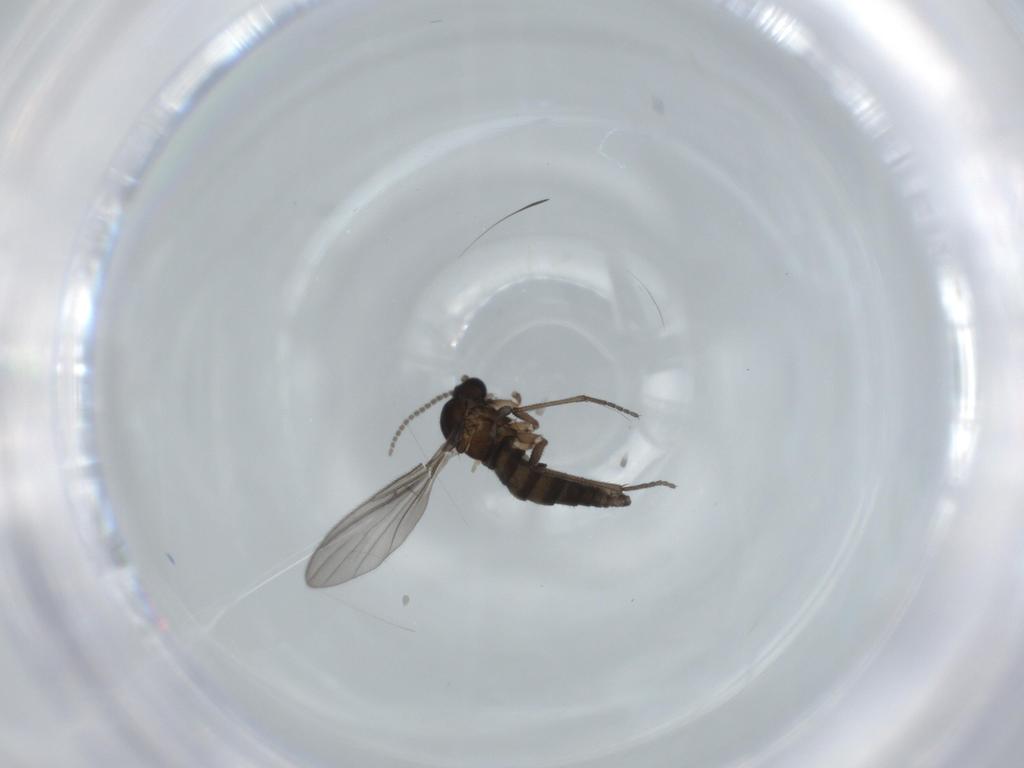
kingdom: Animalia
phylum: Arthropoda
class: Insecta
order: Diptera
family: Sciaridae
